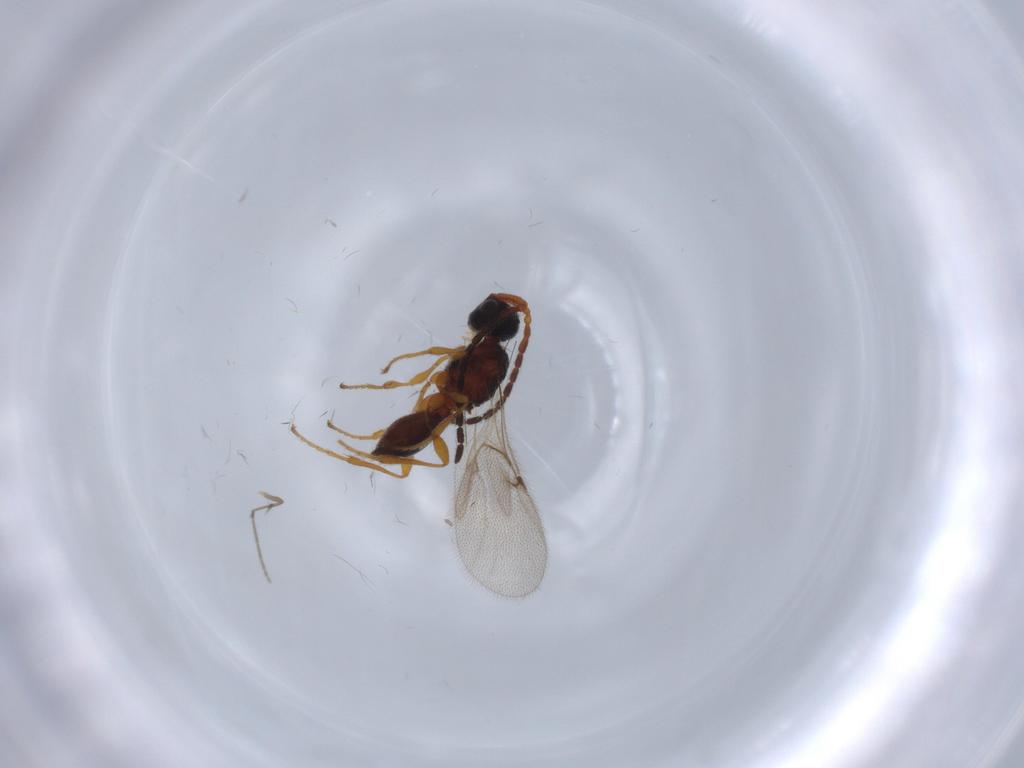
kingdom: Animalia
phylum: Arthropoda
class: Insecta
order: Hymenoptera
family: Diapriidae
